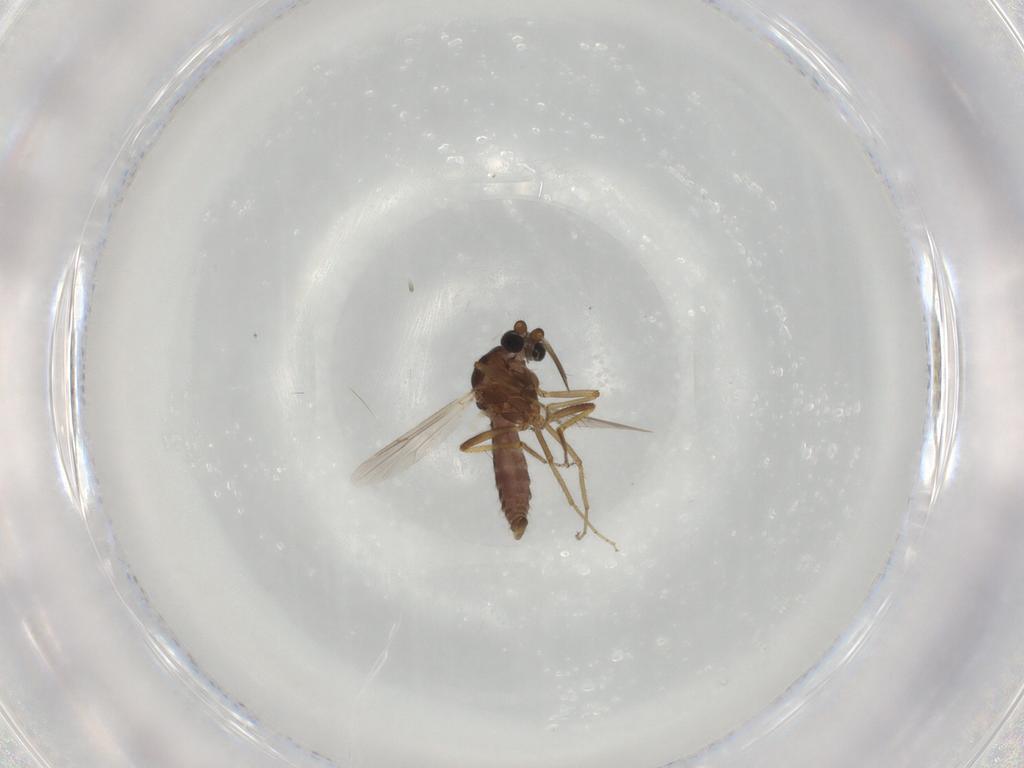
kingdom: Animalia
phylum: Arthropoda
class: Insecta
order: Diptera
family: Ceratopogonidae
